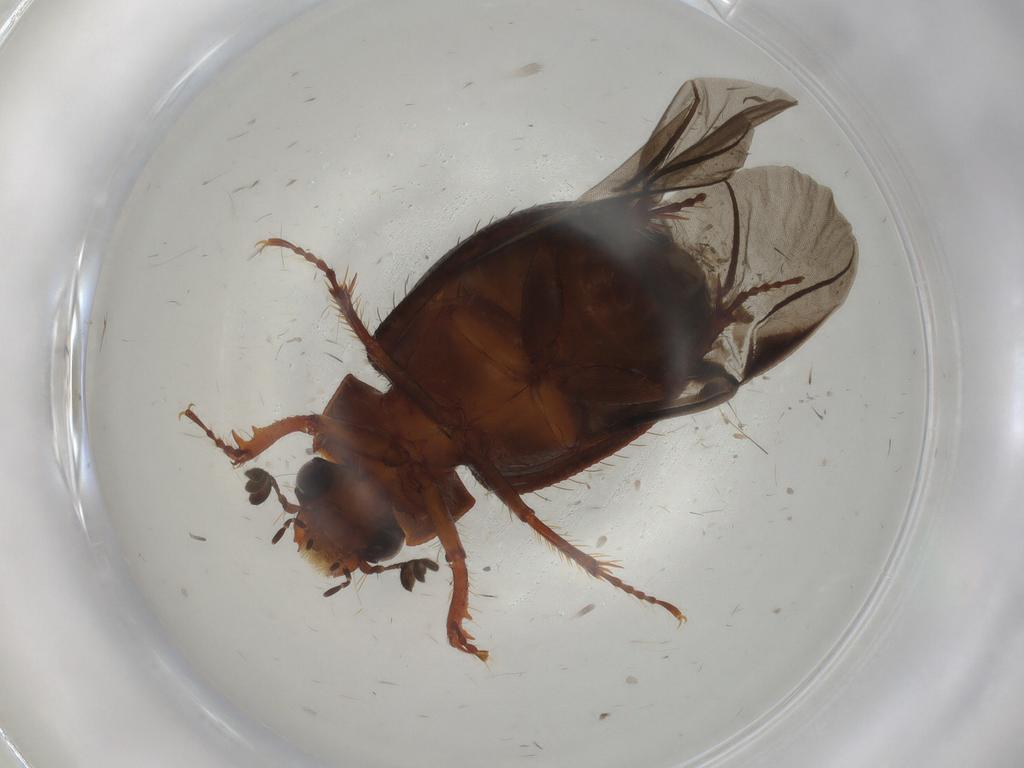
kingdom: Animalia
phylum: Arthropoda
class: Insecta
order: Coleoptera
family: Hybosoridae
